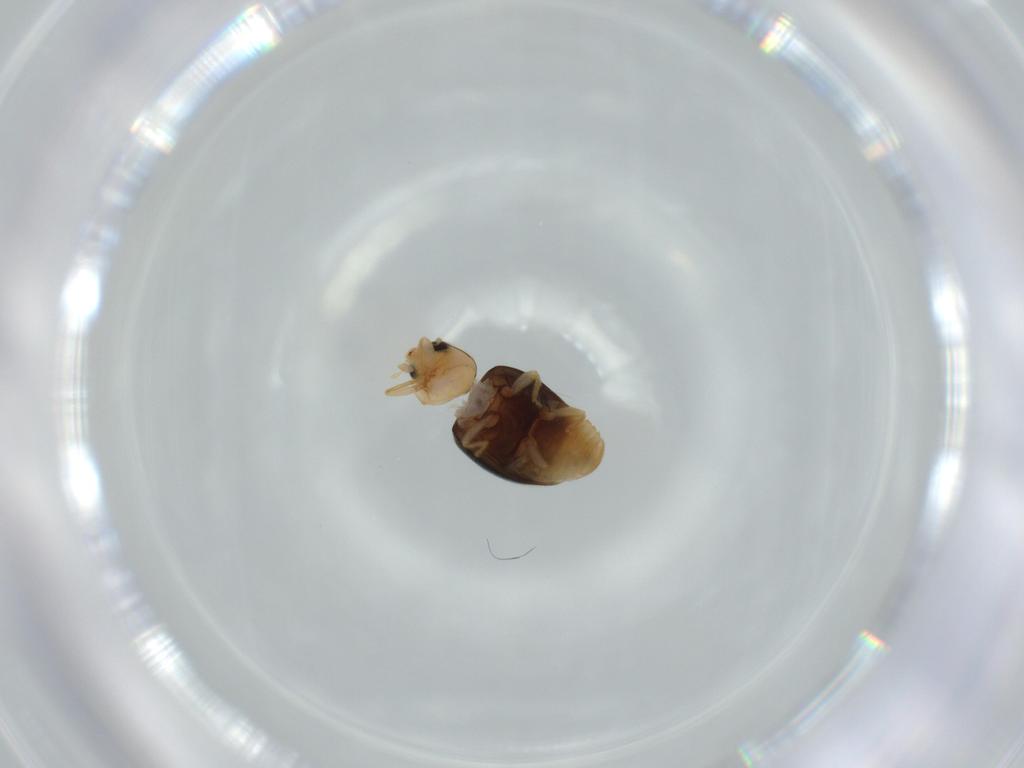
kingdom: Animalia
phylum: Arthropoda
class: Insecta
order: Coleoptera
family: Coccinellidae
